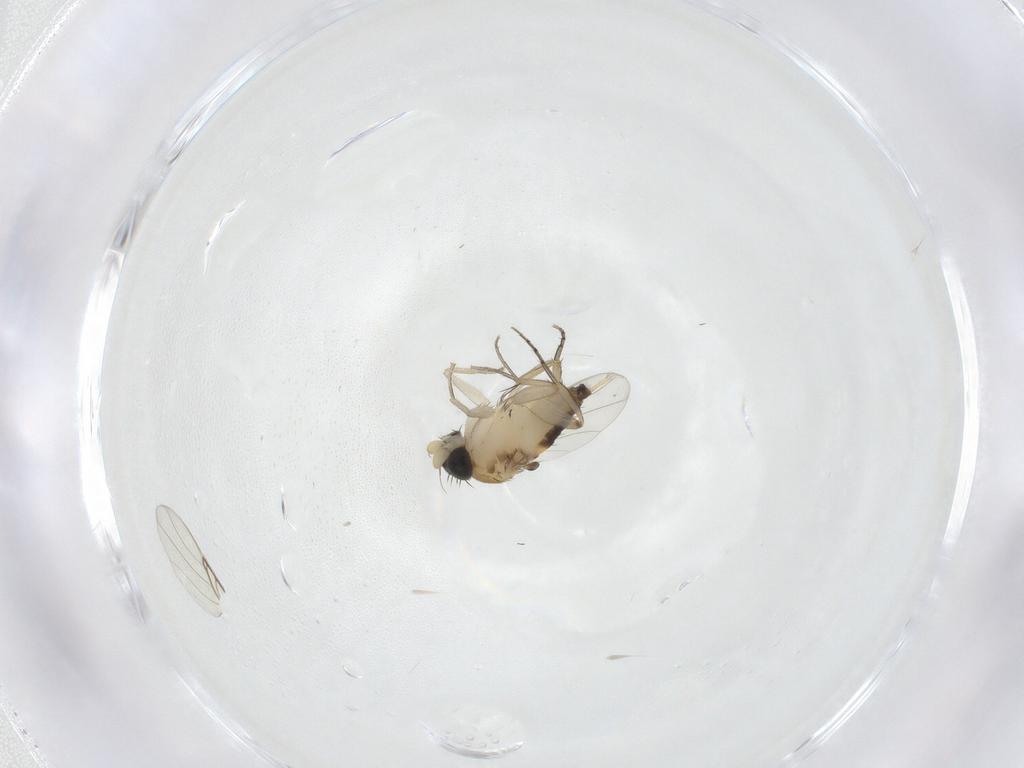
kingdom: Animalia
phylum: Arthropoda
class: Insecta
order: Diptera
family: Phoridae
